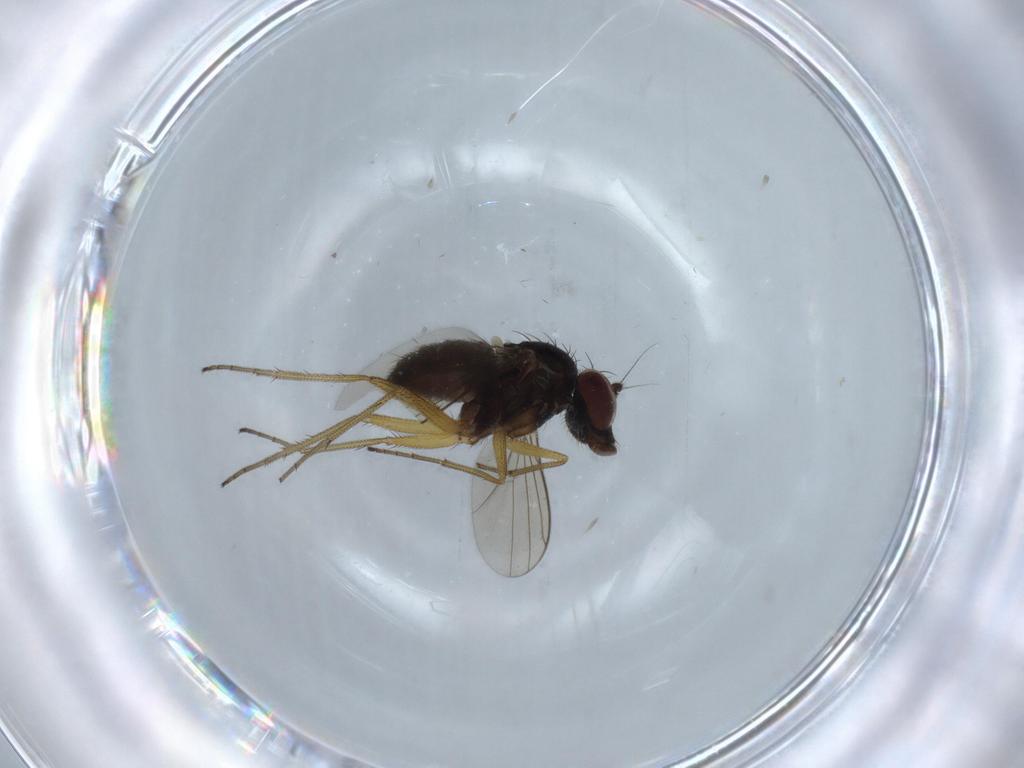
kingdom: Animalia
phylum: Arthropoda
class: Insecta
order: Diptera
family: Dolichopodidae
